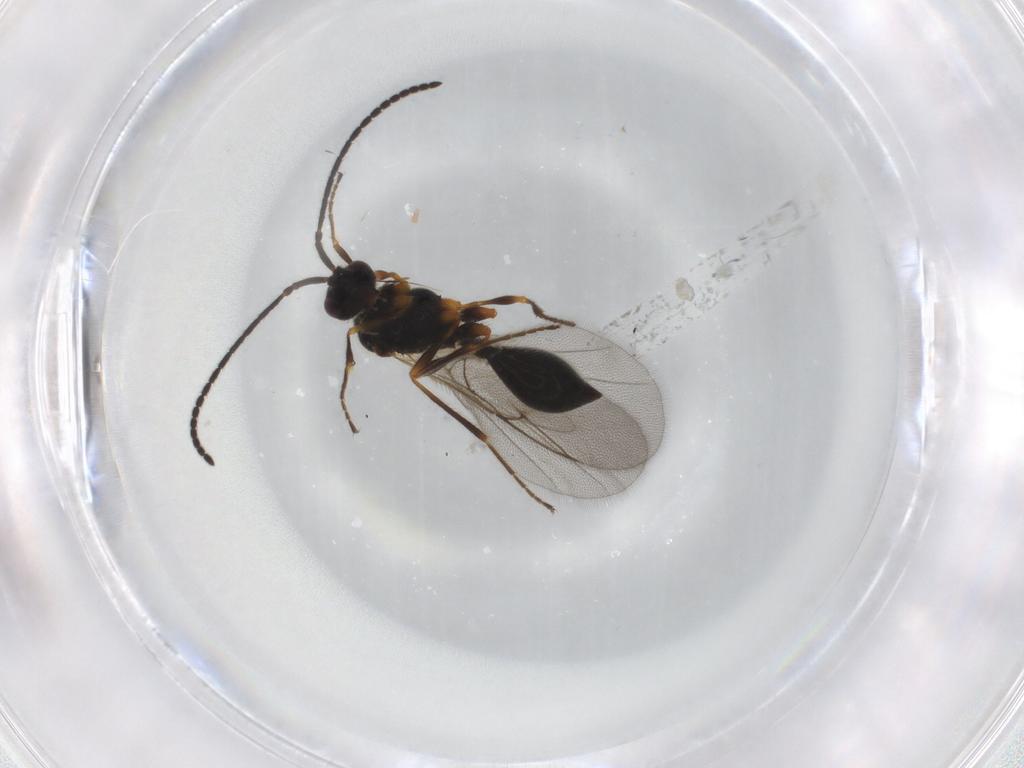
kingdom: Animalia
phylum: Arthropoda
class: Insecta
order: Hymenoptera
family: Diapriidae
